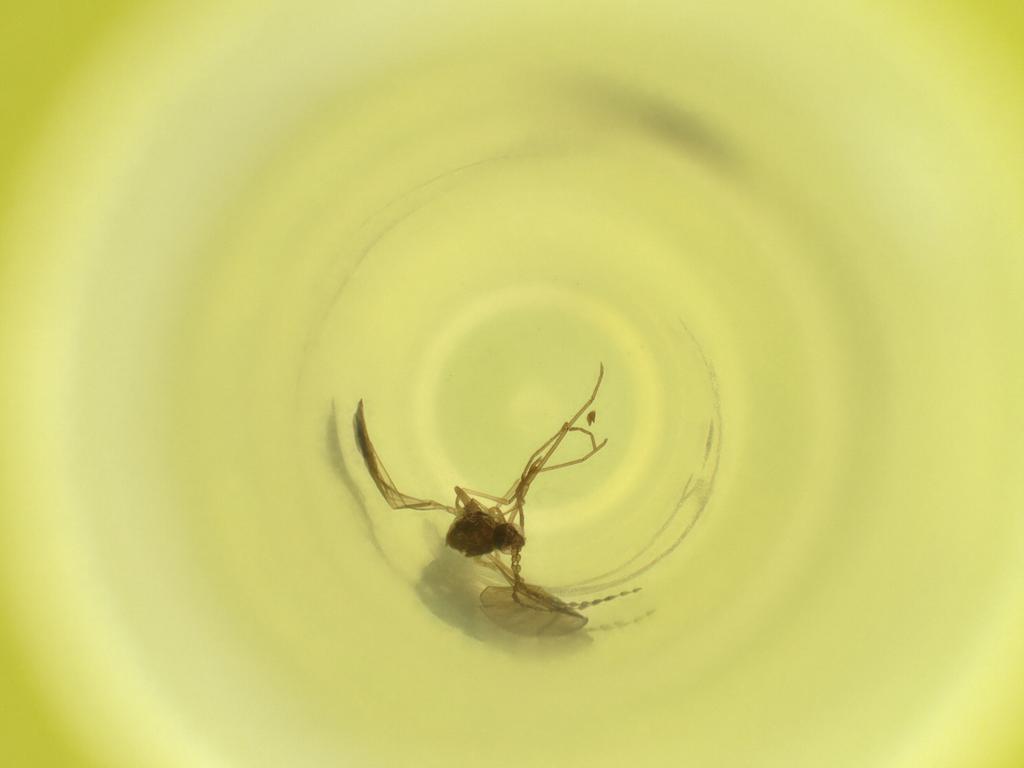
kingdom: Animalia
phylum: Arthropoda
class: Insecta
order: Diptera
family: Cecidomyiidae
